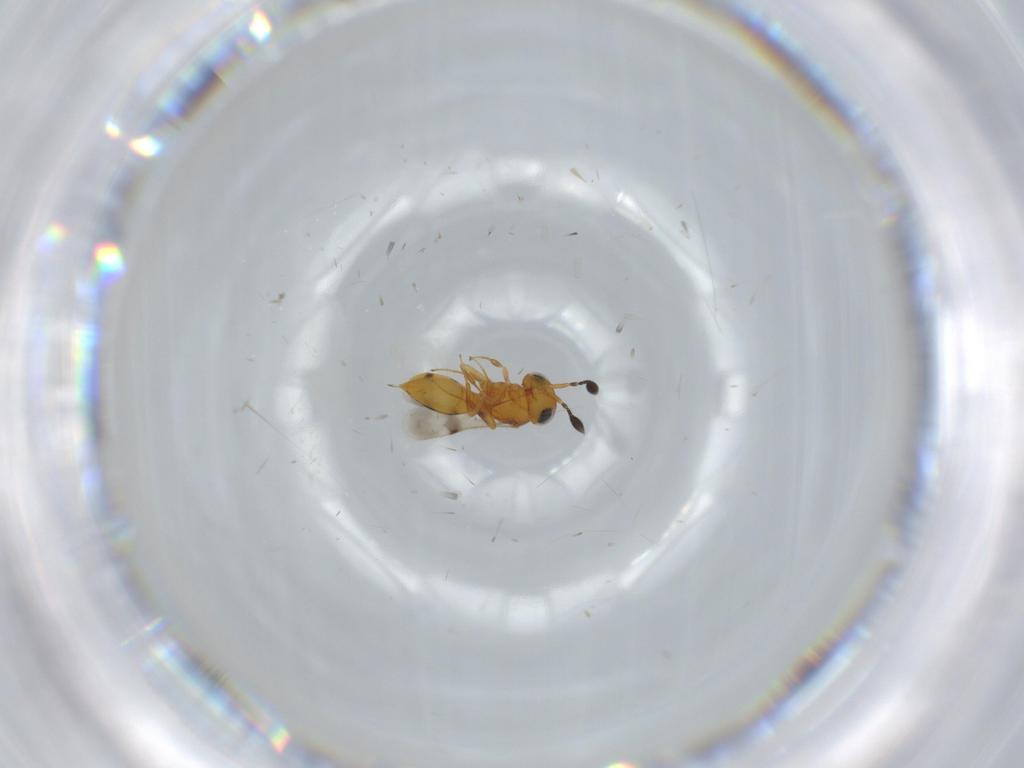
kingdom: Animalia
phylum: Arthropoda
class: Insecta
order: Hymenoptera
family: Scelionidae
